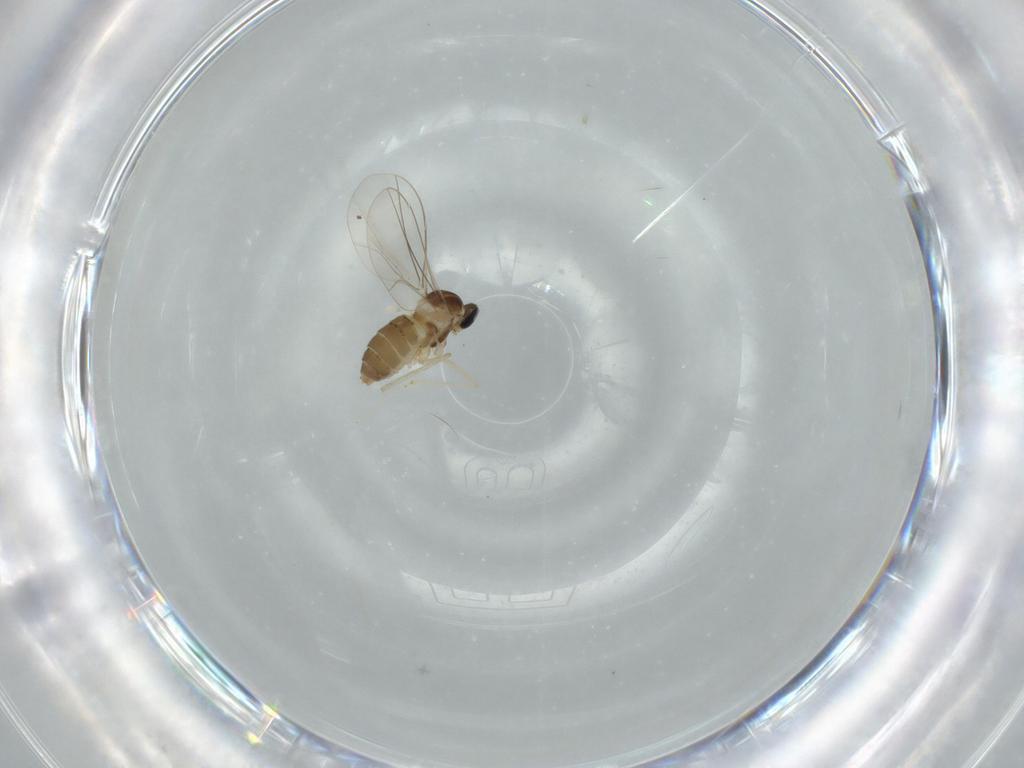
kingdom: Animalia
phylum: Arthropoda
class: Insecta
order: Diptera
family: Cecidomyiidae
